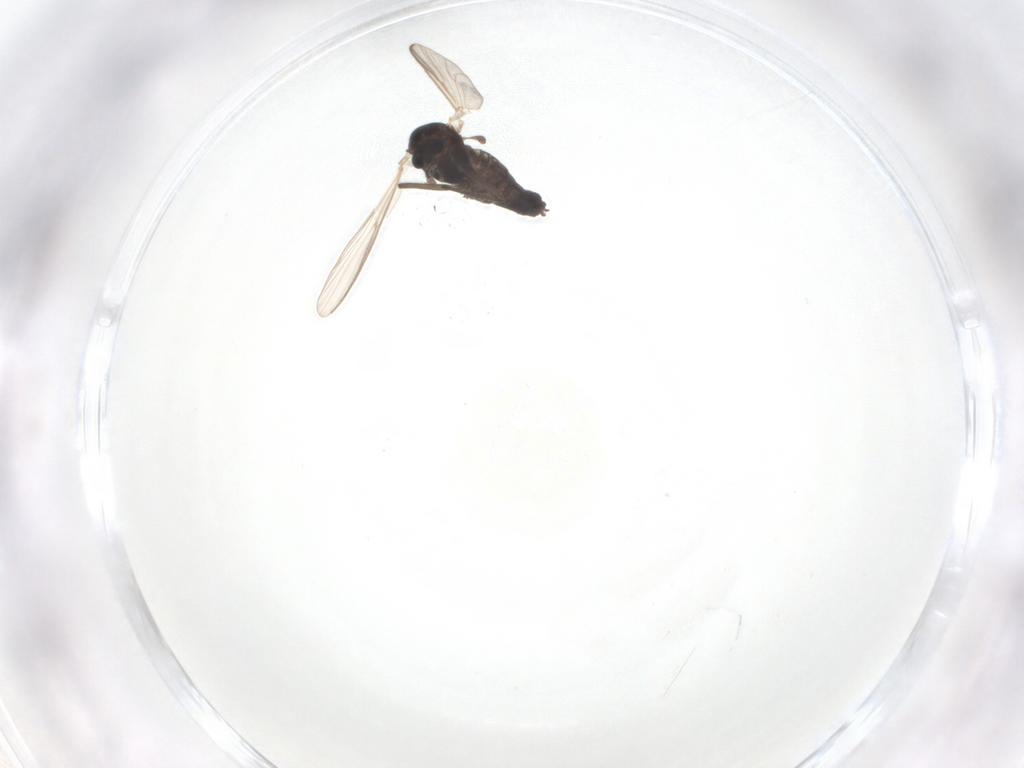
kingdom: Animalia
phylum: Arthropoda
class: Insecta
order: Diptera
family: Chironomidae
